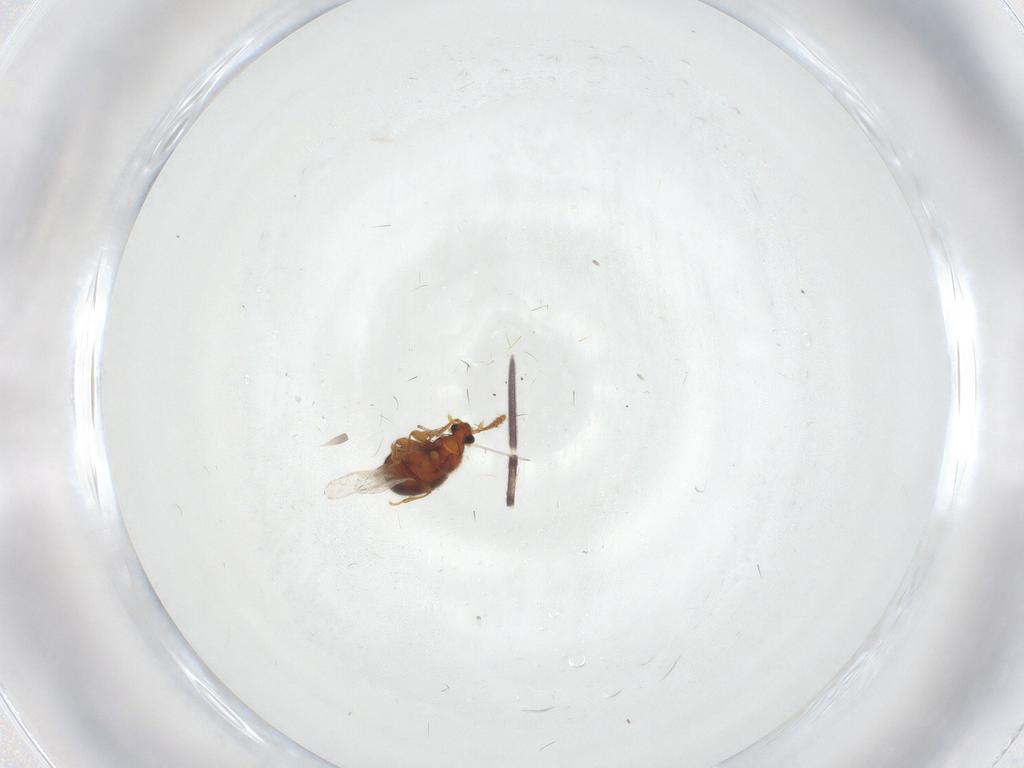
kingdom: Animalia
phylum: Arthropoda
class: Insecta
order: Coleoptera
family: Staphylinidae
